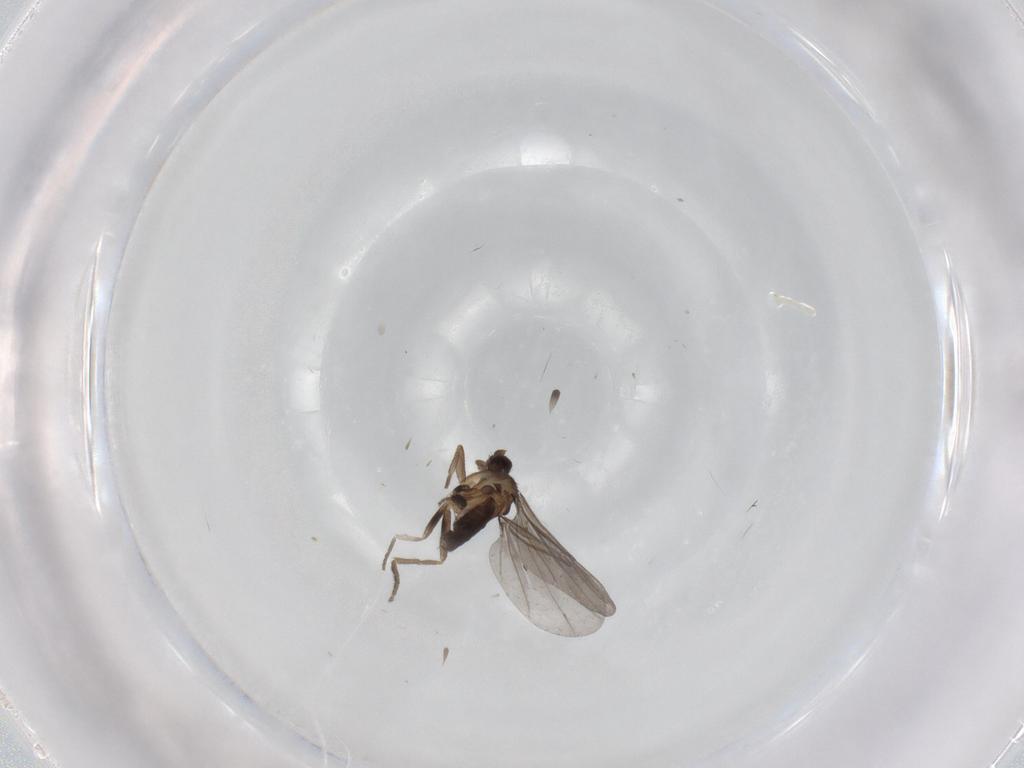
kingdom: Animalia
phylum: Arthropoda
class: Insecta
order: Diptera
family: Phoridae
